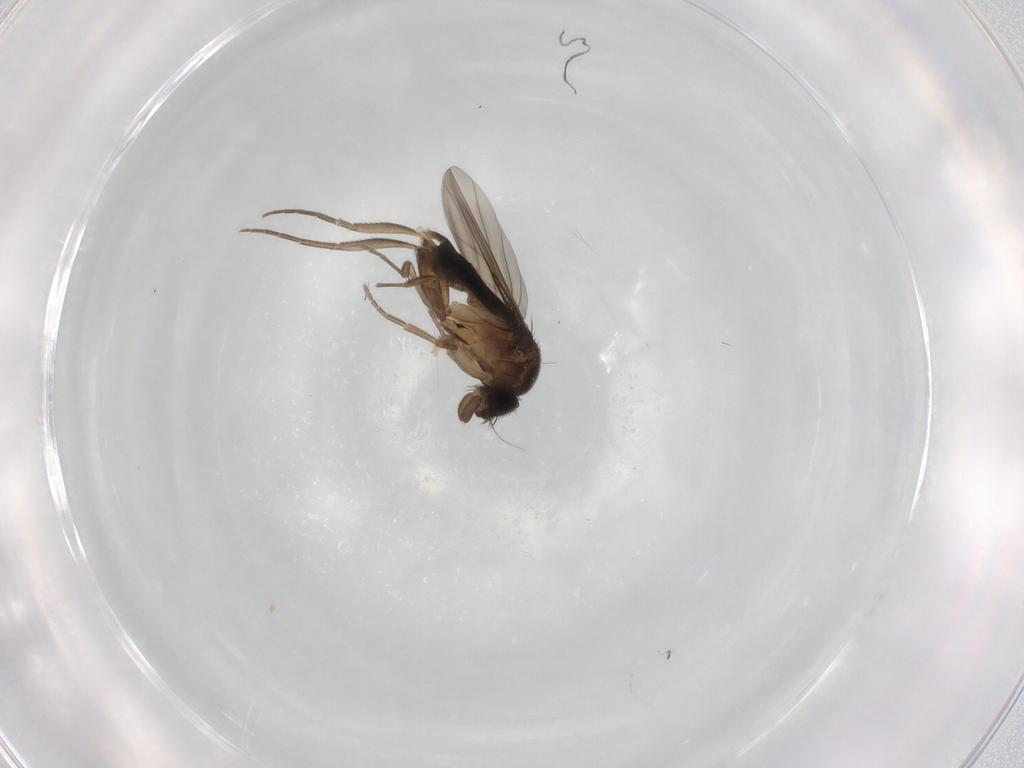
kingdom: Animalia
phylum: Arthropoda
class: Insecta
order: Diptera
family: Phoridae
